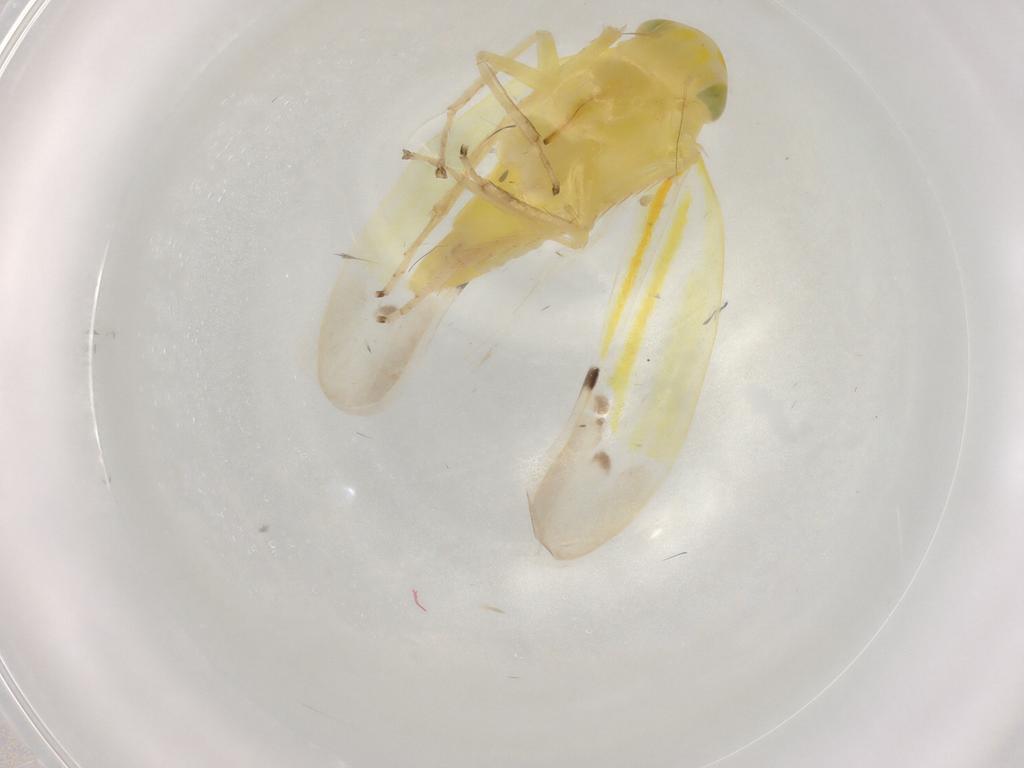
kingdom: Animalia
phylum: Arthropoda
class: Insecta
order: Hemiptera
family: Cicadellidae
